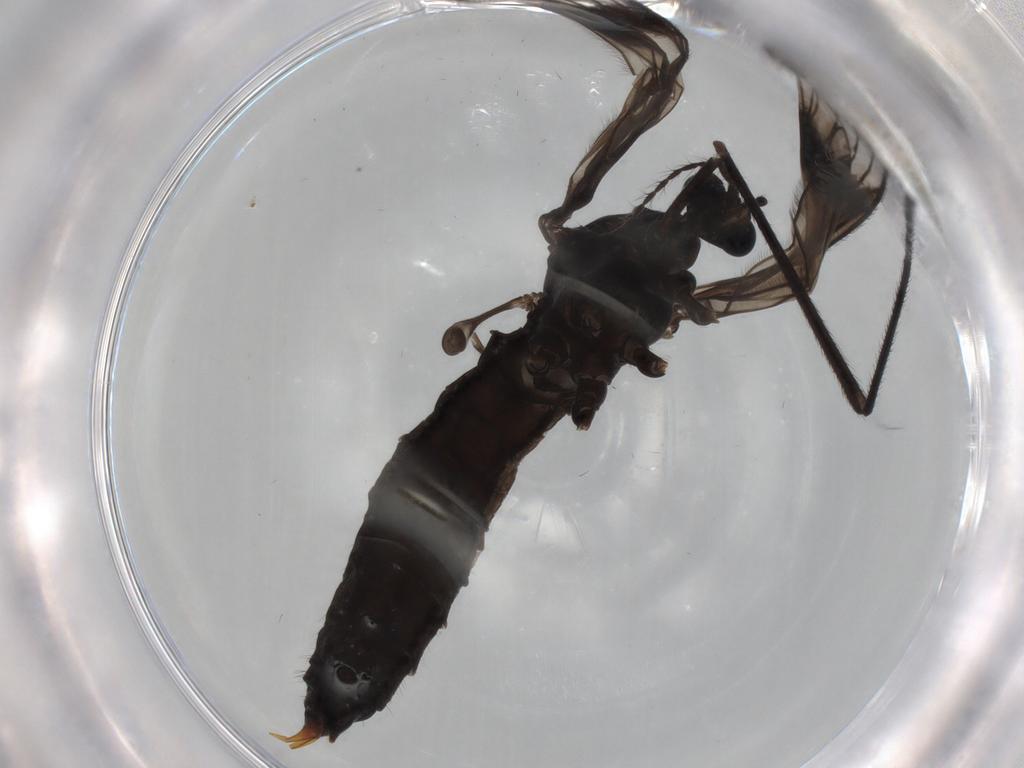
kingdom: Animalia
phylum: Arthropoda
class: Insecta
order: Diptera
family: Limoniidae
